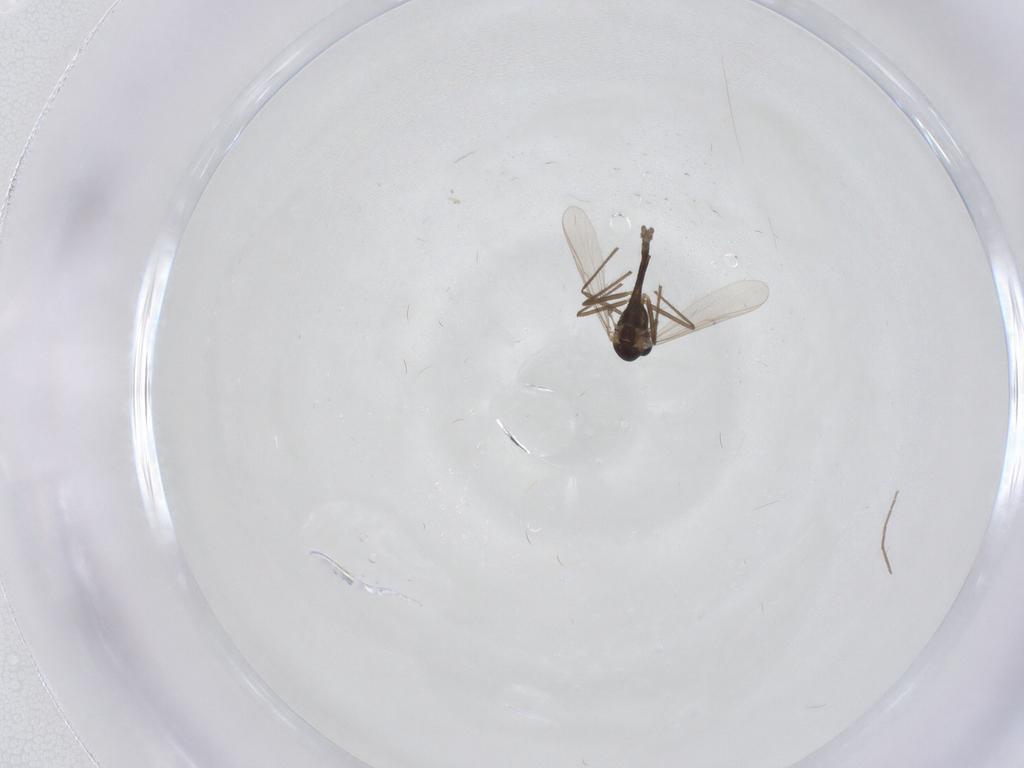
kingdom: Animalia
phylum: Arthropoda
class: Insecta
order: Diptera
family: Chironomidae
